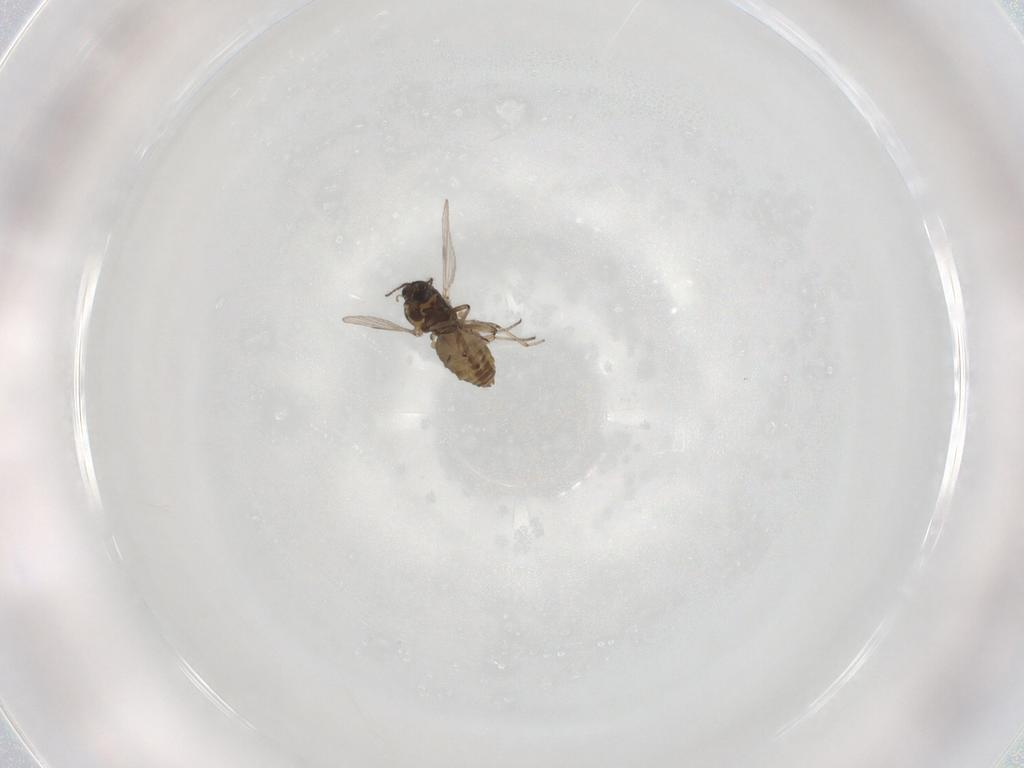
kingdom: Animalia
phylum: Arthropoda
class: Insecta
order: Diptera
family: Ceratopogonidae
